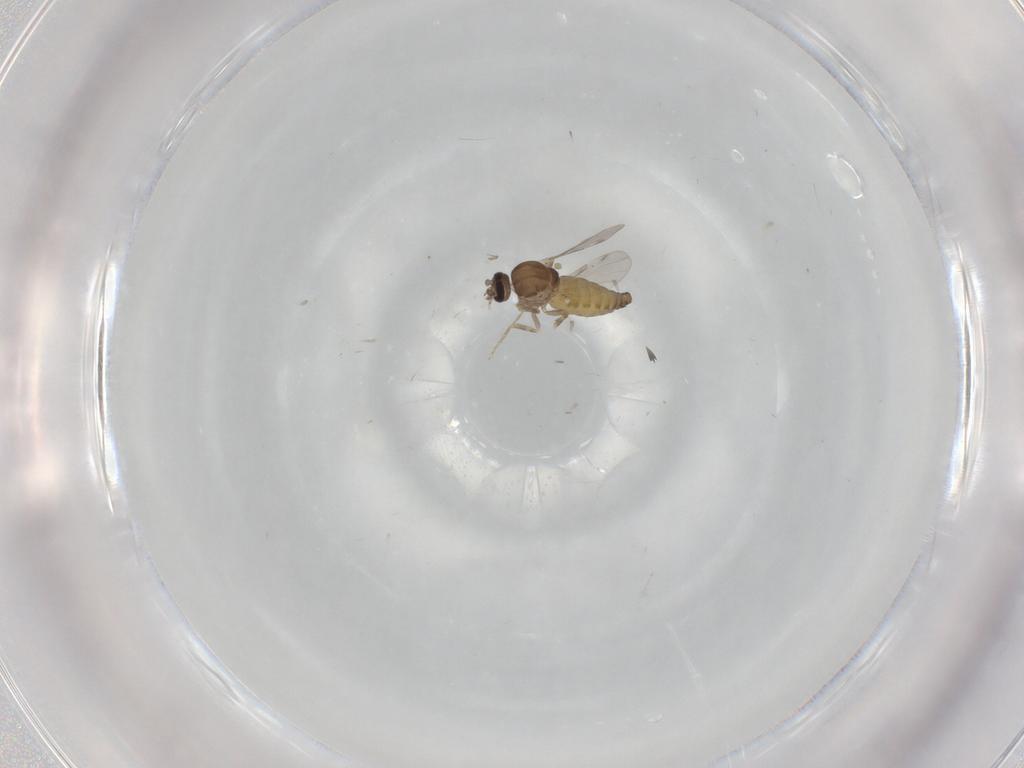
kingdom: Animalia
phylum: Arthropoda
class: Insecta
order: Diptera
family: Ceratopogonidae
